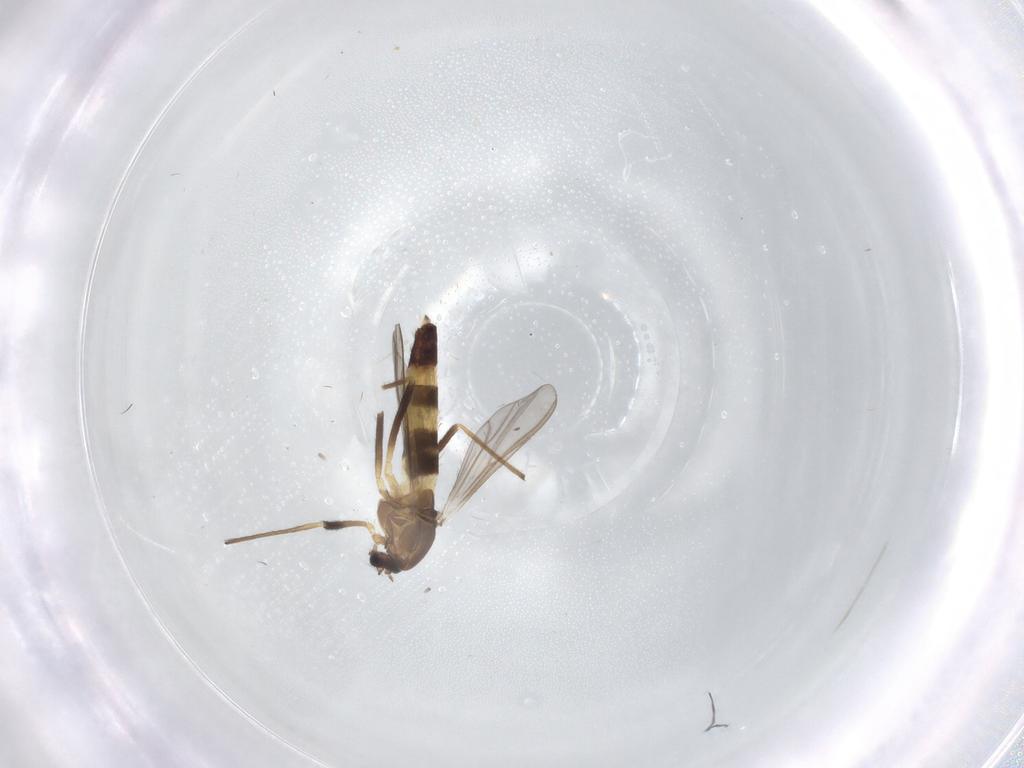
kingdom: Animalia
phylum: Arthropoda
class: Insecta
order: Diptera
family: Chironomidae
